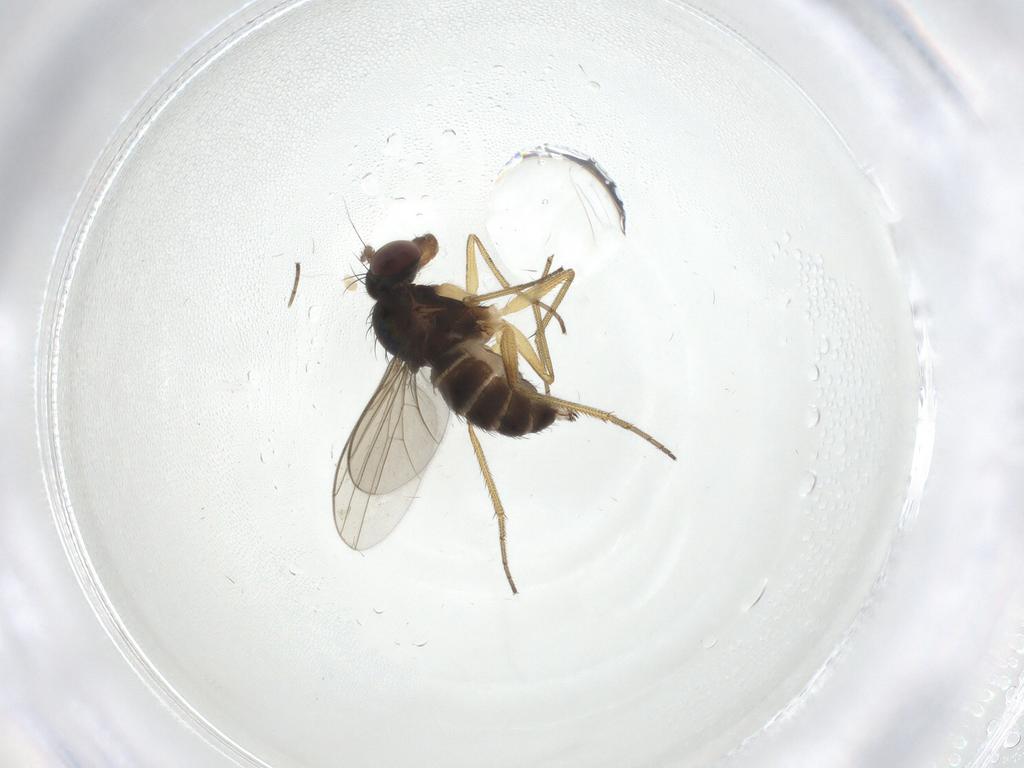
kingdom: Animalia
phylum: Arthropoda
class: Insecta
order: Diptera
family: Dolichopodidae
